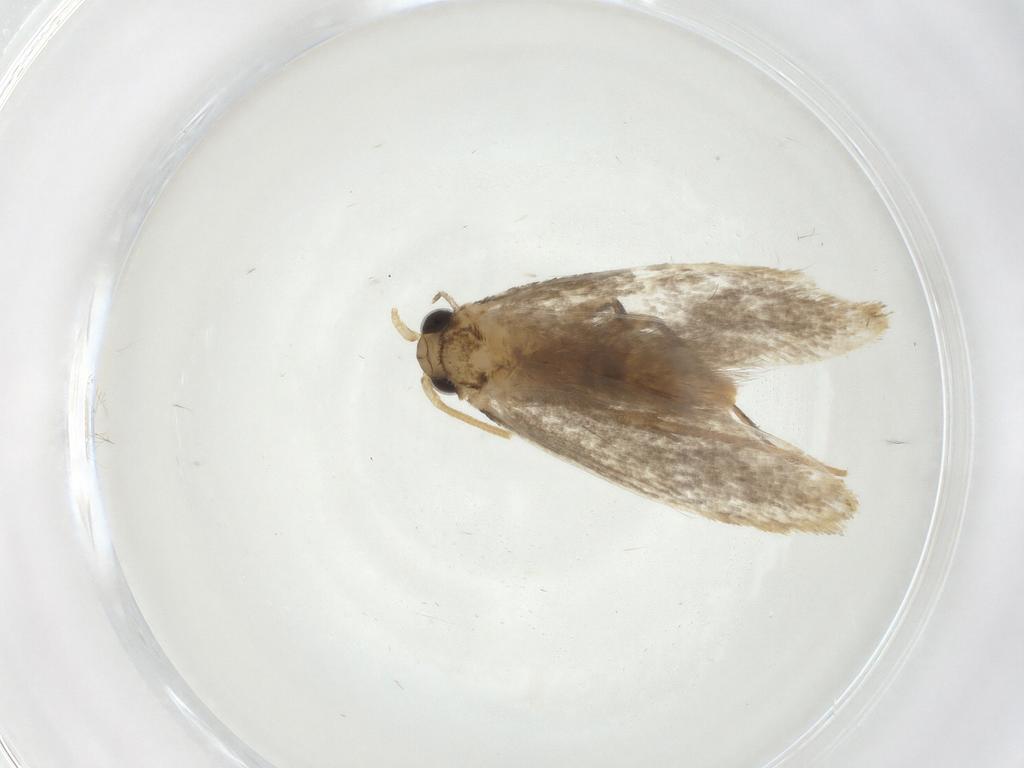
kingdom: Animalia
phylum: Arthropoda
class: Insecta
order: Lepidoptera
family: Tineidae
